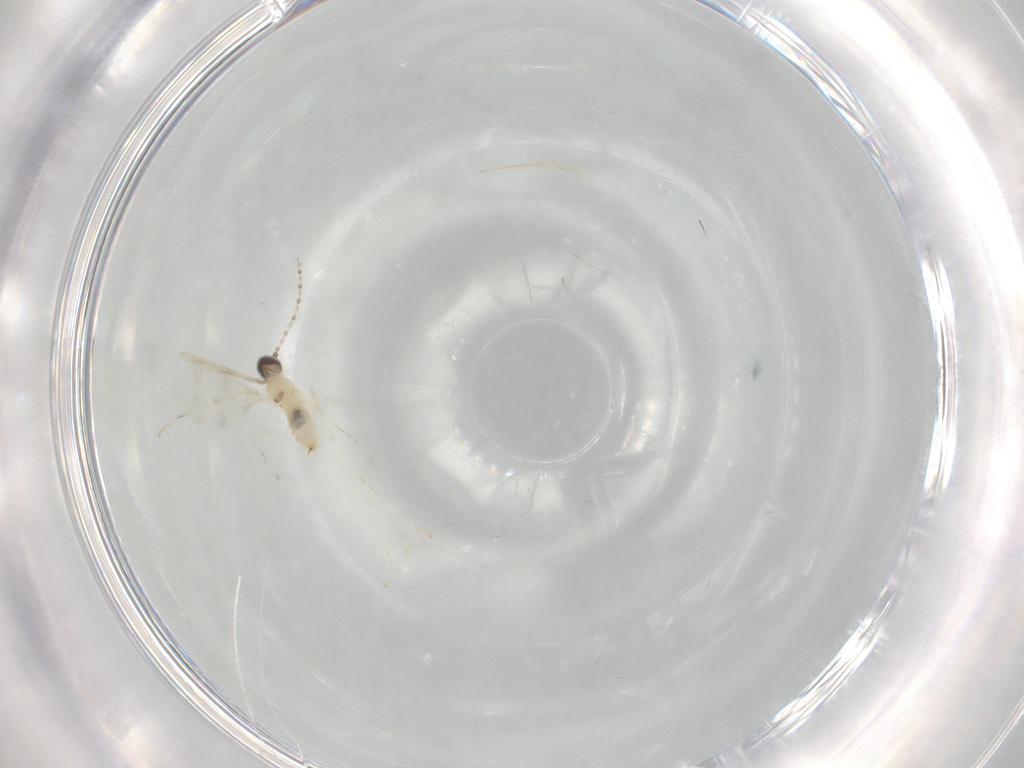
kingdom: Animalia
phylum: Arthropoda
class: Insecta
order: Diptera
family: Cecidomyiidae
